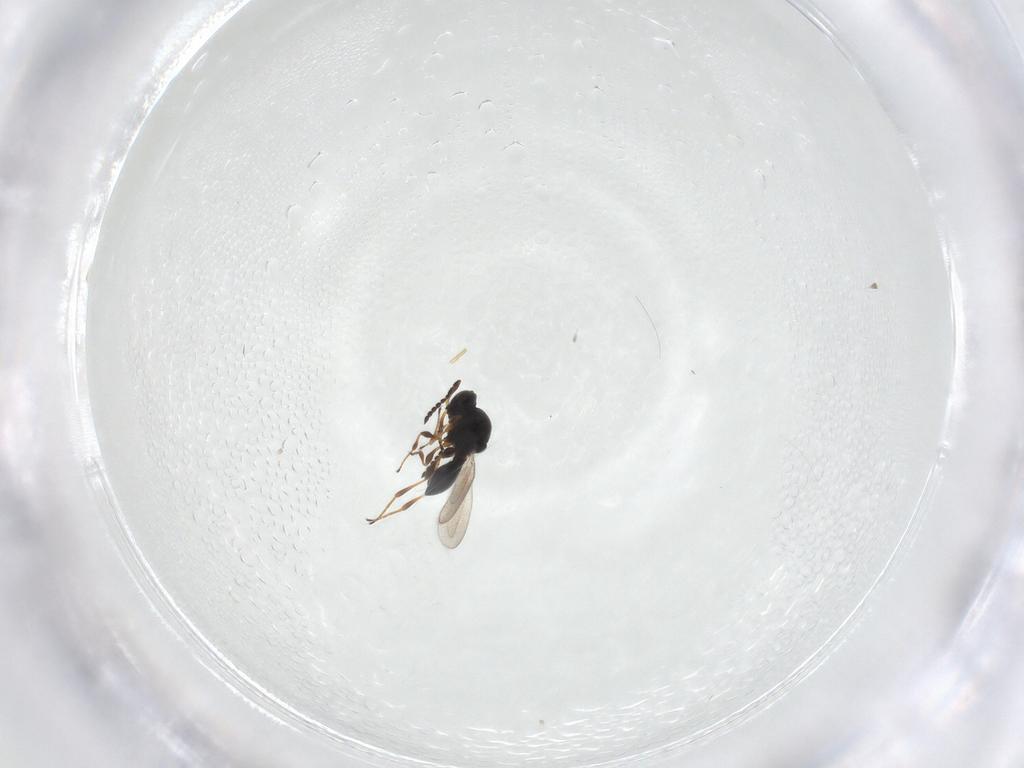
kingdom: Animalia
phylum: Arthropoda
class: Insecta
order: Hymenoptera
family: Platygastridae
